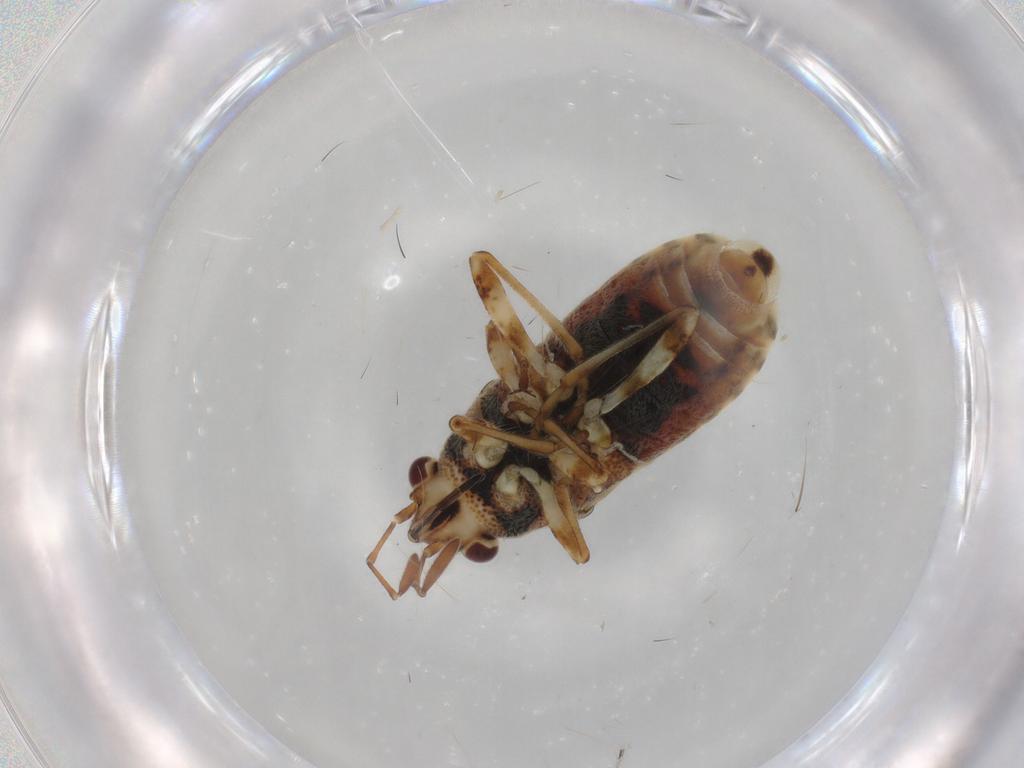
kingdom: Animalia
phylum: Arthropoda
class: Insecta
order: Hemiptera
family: Lygaeidae
